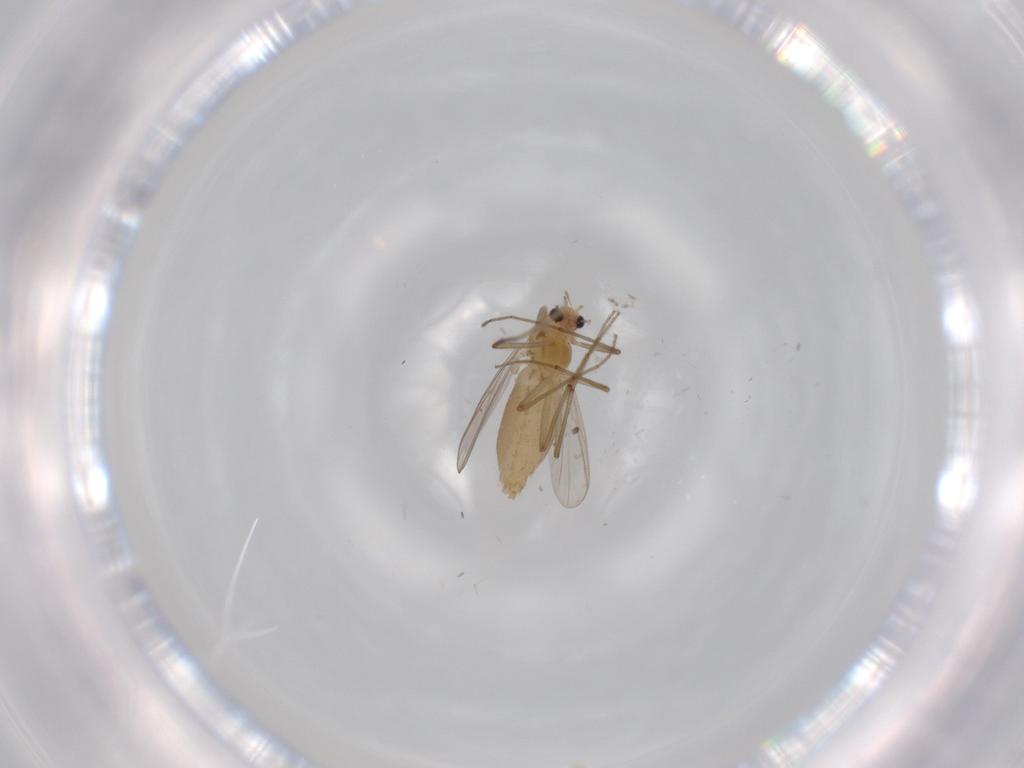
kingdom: Animalia
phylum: Arthropoda
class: Insecta
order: Diptera
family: Chironomidae
